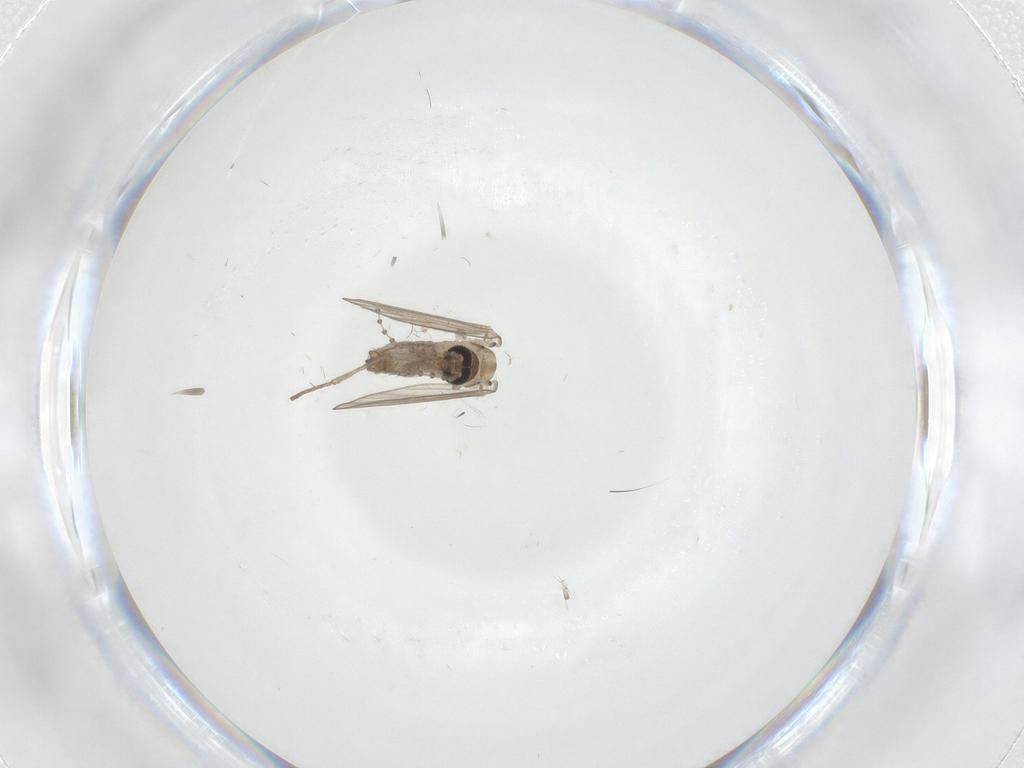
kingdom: Animalia
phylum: Arthropoda
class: Insecta
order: Diptera
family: Psychodidae
